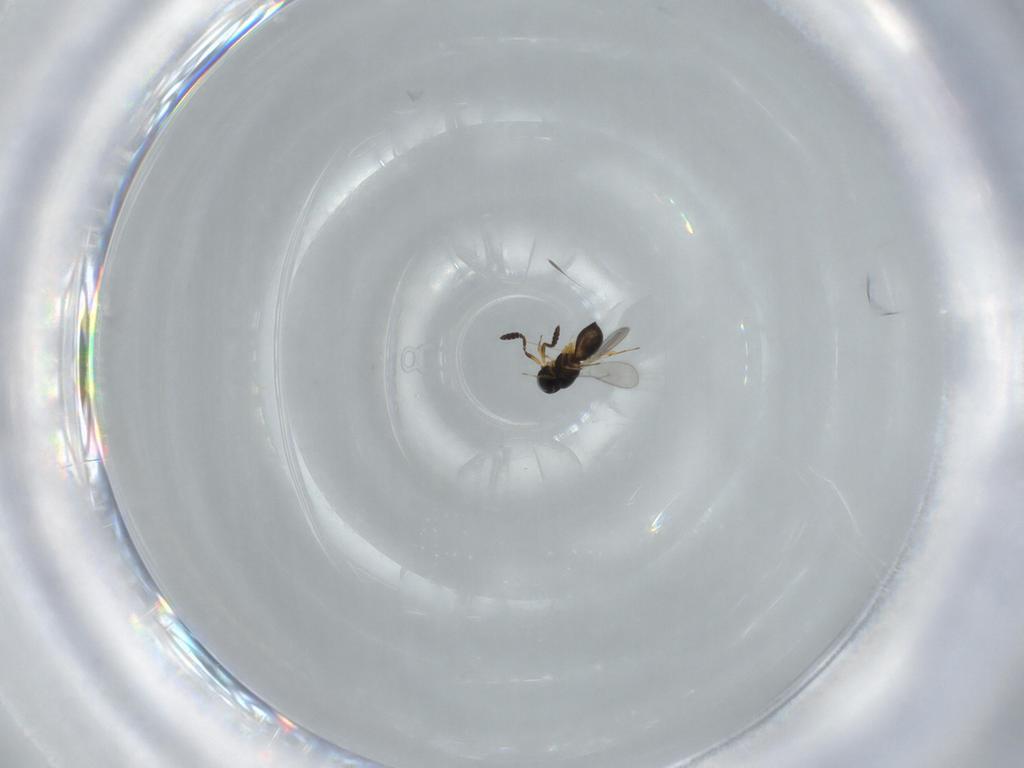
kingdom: Animalia
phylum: Arthropoda
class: Insecta
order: Hymenoptera
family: Scelionidae
